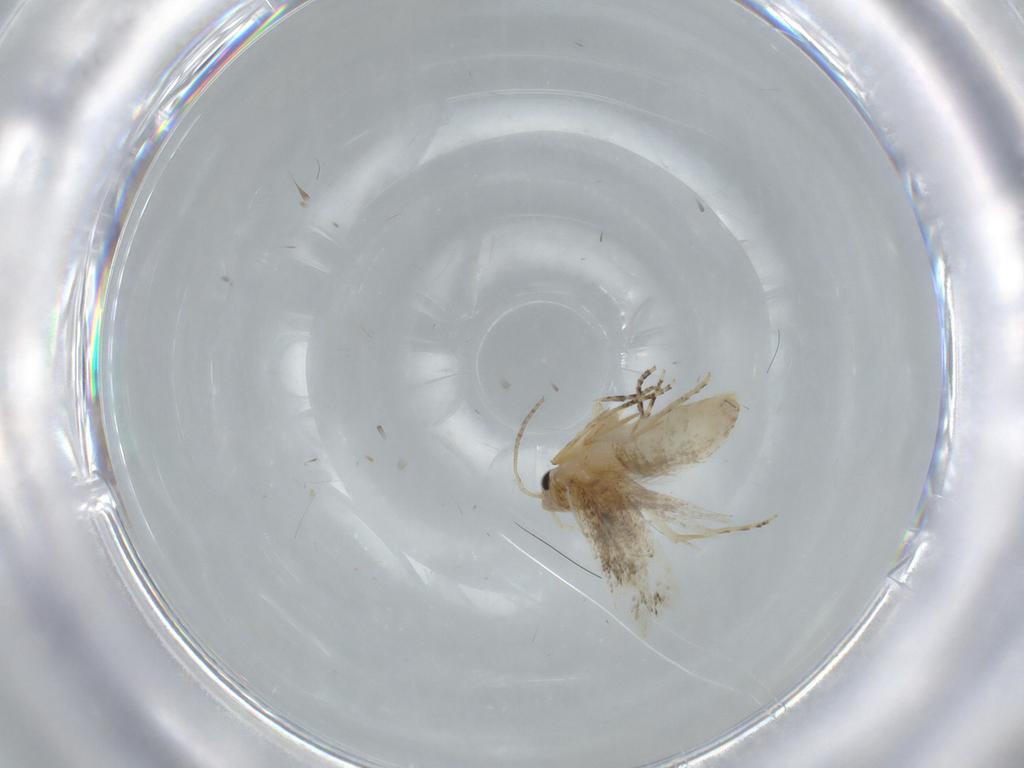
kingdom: Animalia
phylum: Arthropoda
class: Insecta
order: Lepidoptera
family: Bucculatricidae
